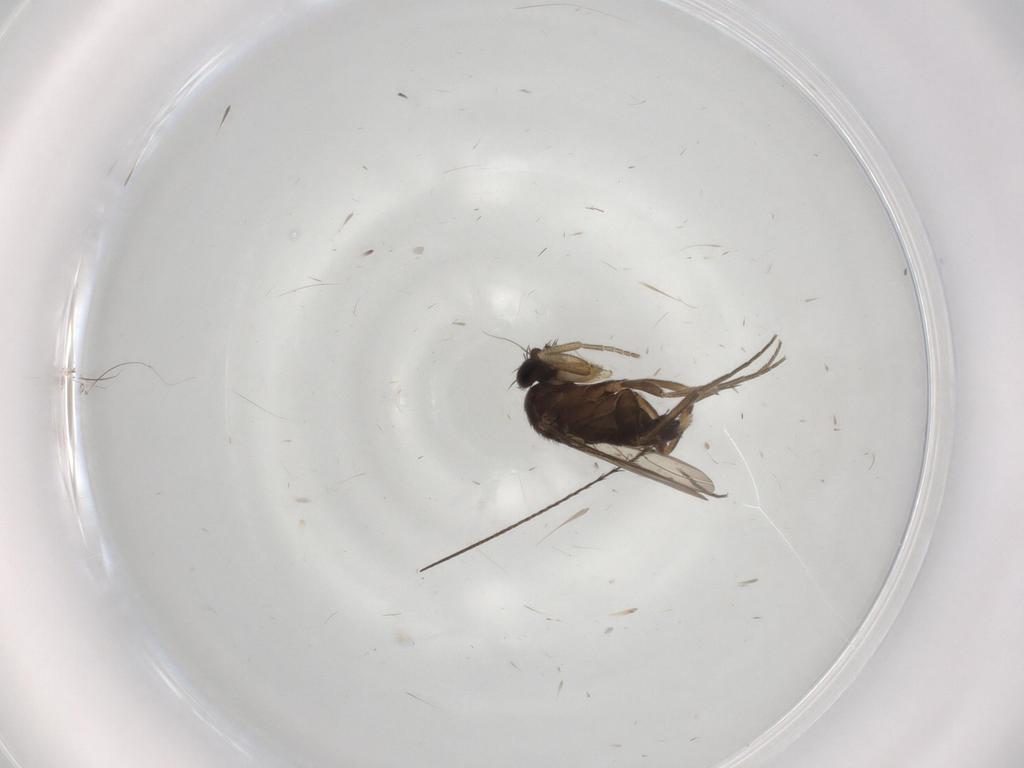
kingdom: Animalia
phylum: Arthropoda
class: Insecta
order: Diptera
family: Phoridae
